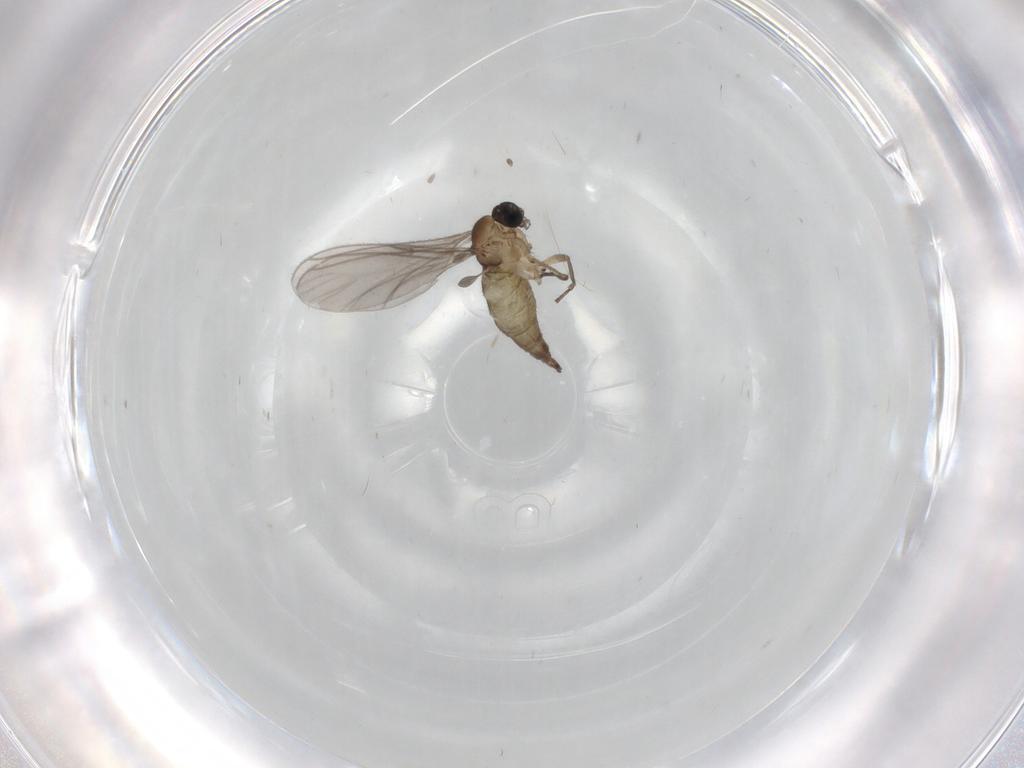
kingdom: Animalia
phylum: Arthropoda
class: Insecta
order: Diptera
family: Sciaridae
